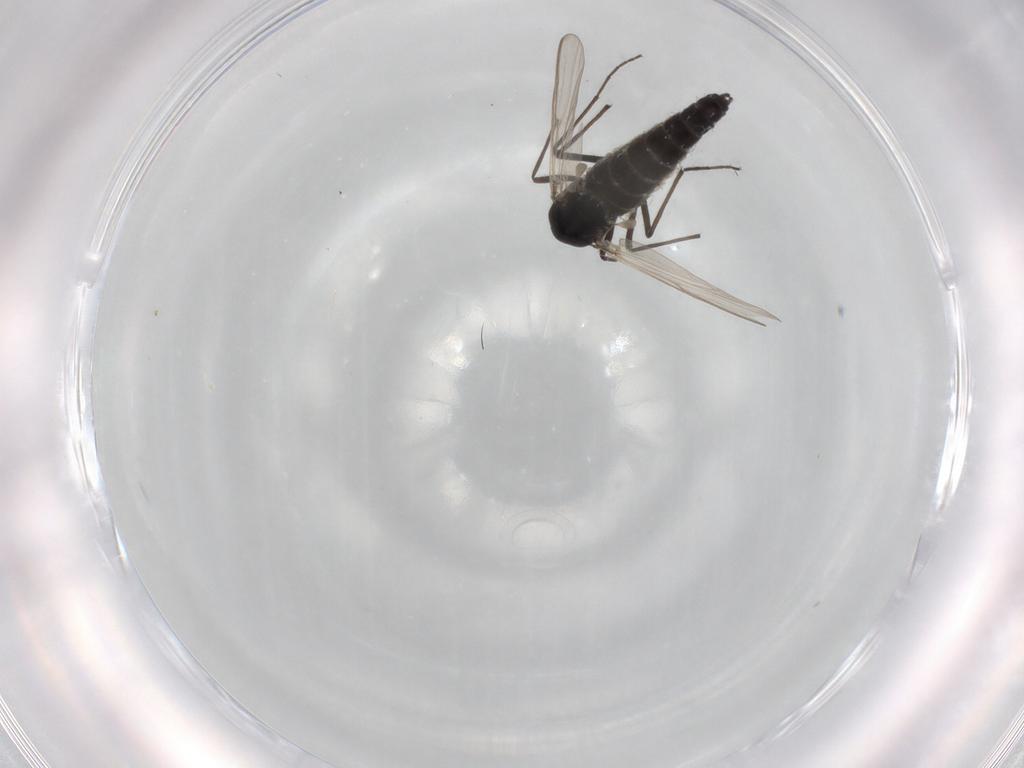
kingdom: Animalia
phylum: Arthropoda
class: Insecta
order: Diptera
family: Chironomidae
